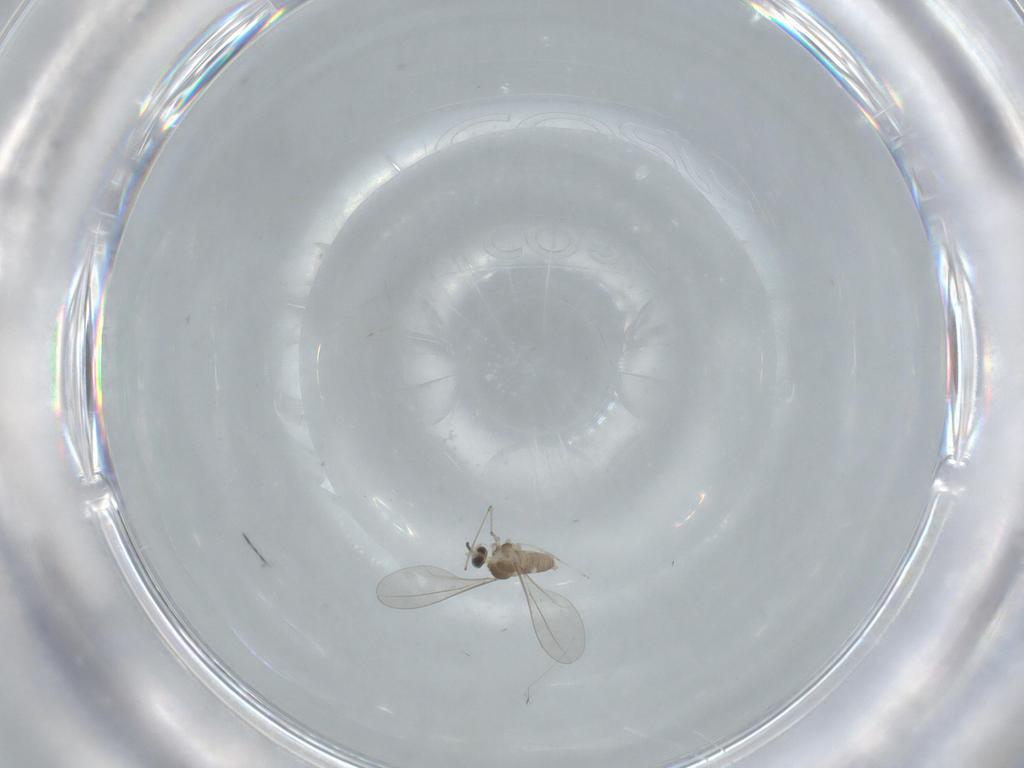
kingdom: Animalia
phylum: Arthropoda
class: Insecta
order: Diptera
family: Cecidomyiidae
